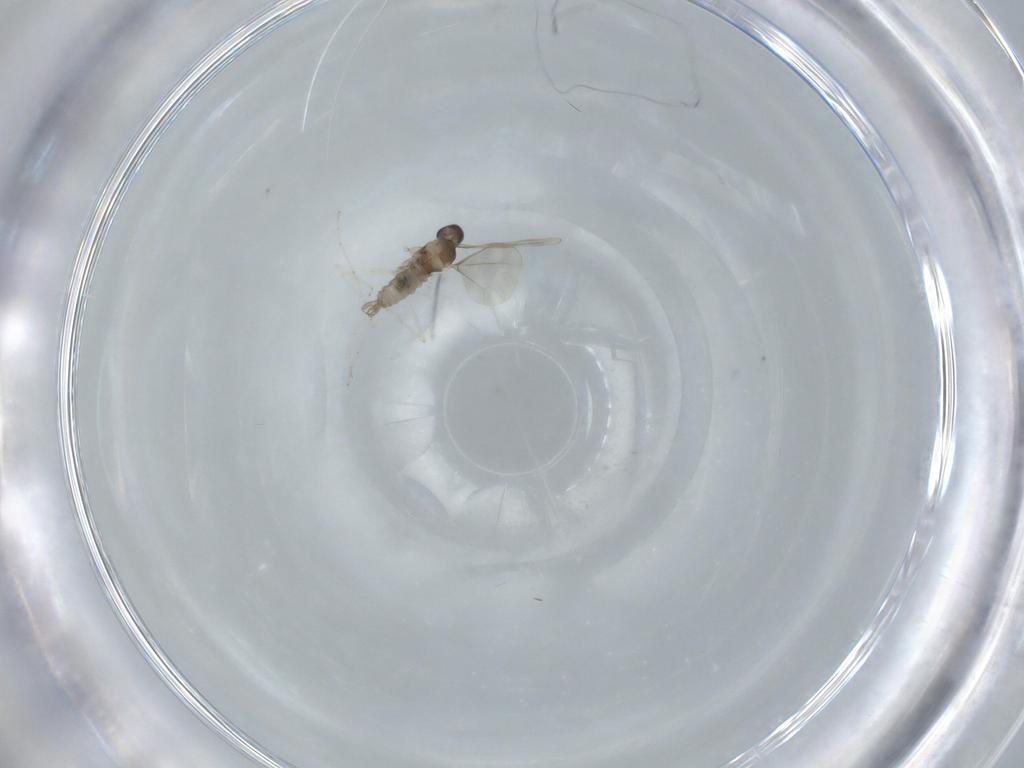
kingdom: Animalia
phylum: Arthropoda
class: Insecta
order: Diptera
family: Cecidomyiidae
